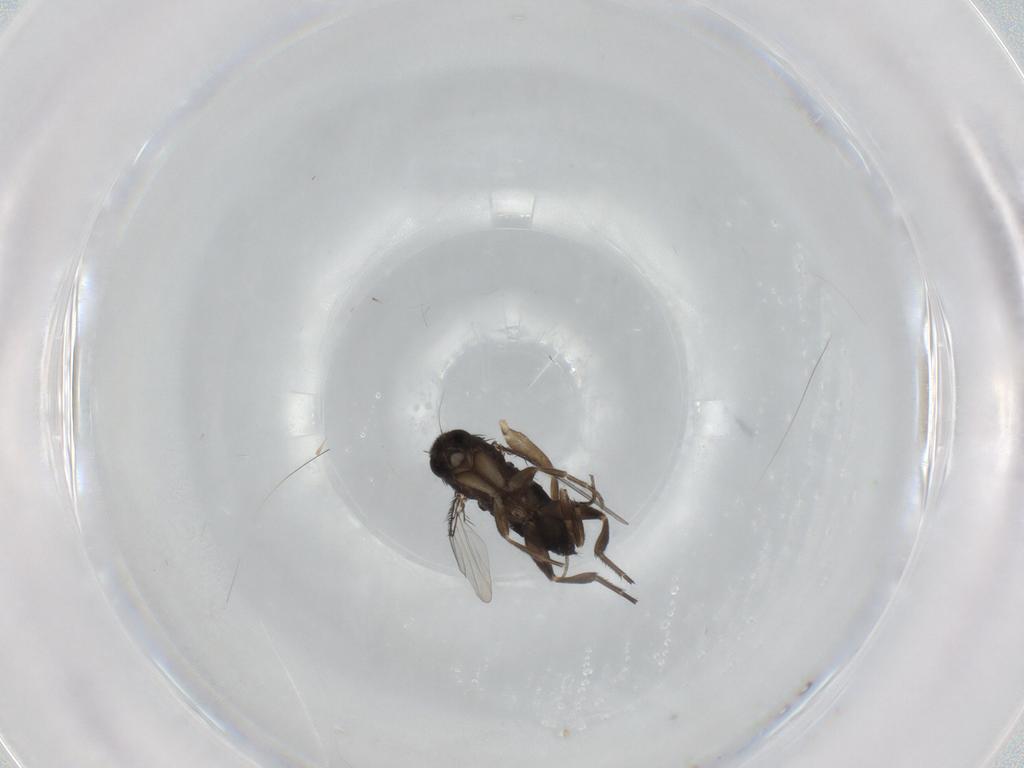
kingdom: Animalia
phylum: Arthropoda
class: Insecta
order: Diptera
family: Phoridae
